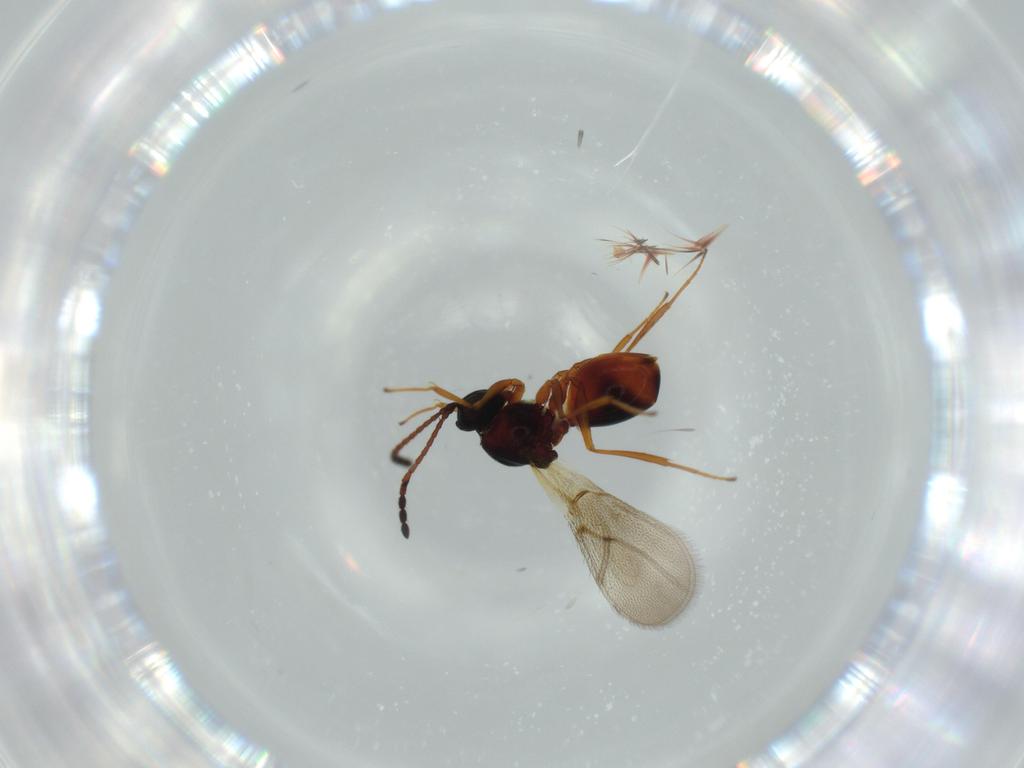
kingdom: Animalia
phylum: Arthropoda
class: Insecta
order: Hymenoptera
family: Figitidae
